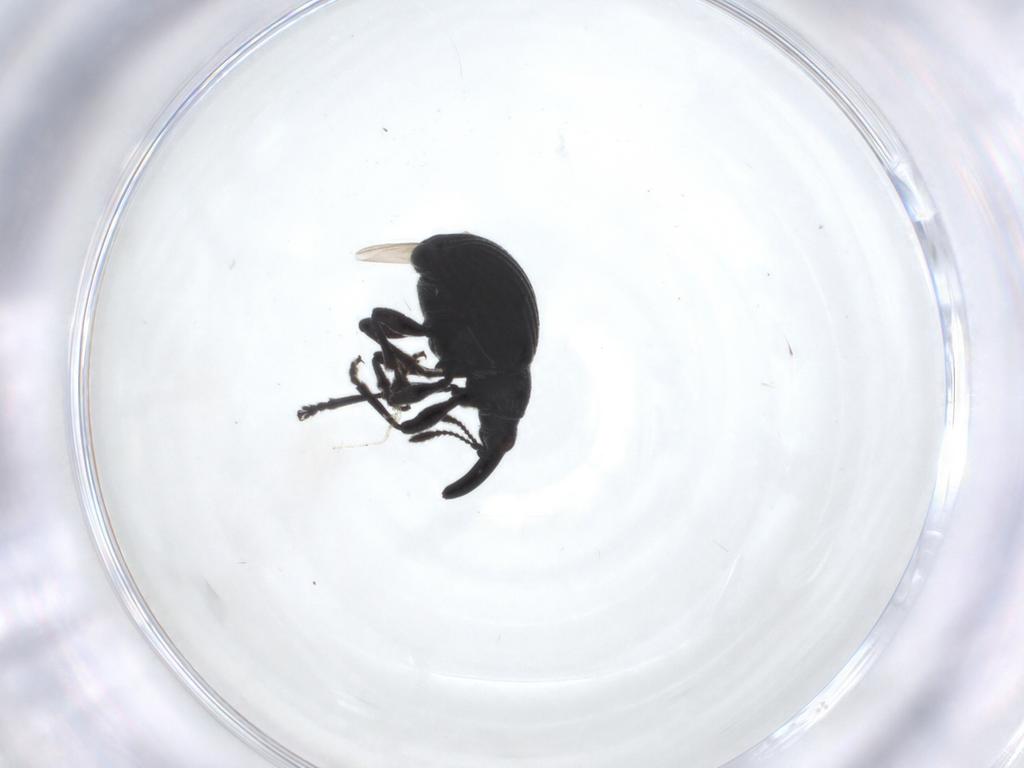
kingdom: Animalia
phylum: Arthropoda
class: Insecta
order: Coleoptera
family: Brentidae
